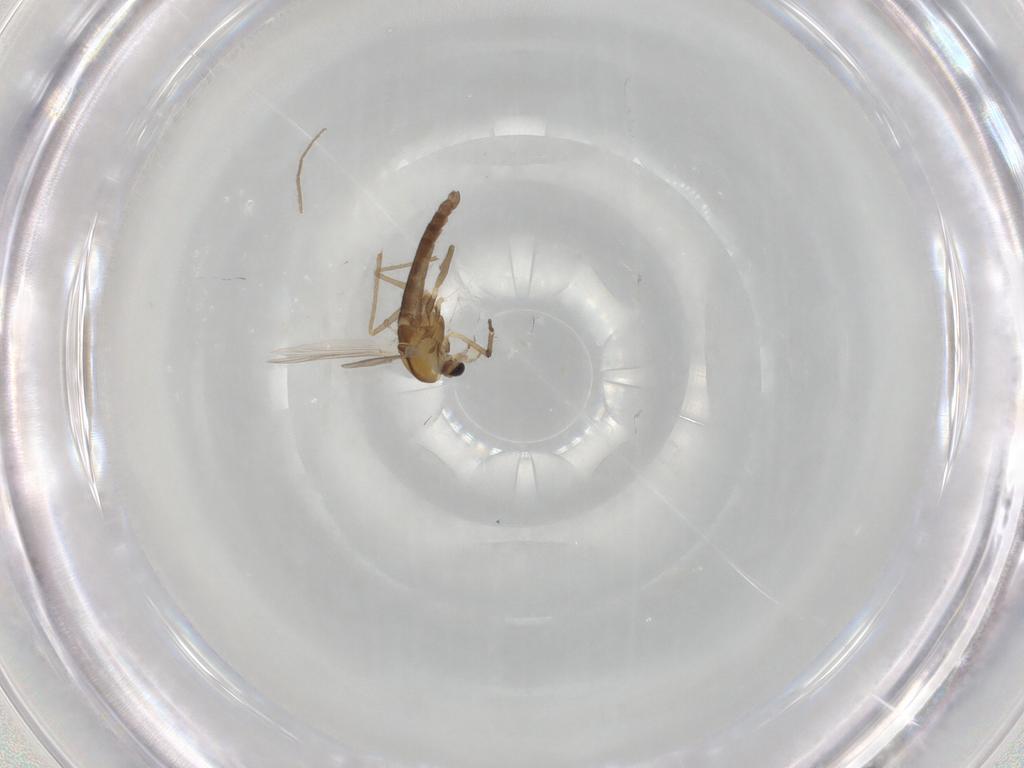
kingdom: Animalia
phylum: Arthropoda
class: Insecta
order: Diptera
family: Chironomidae
